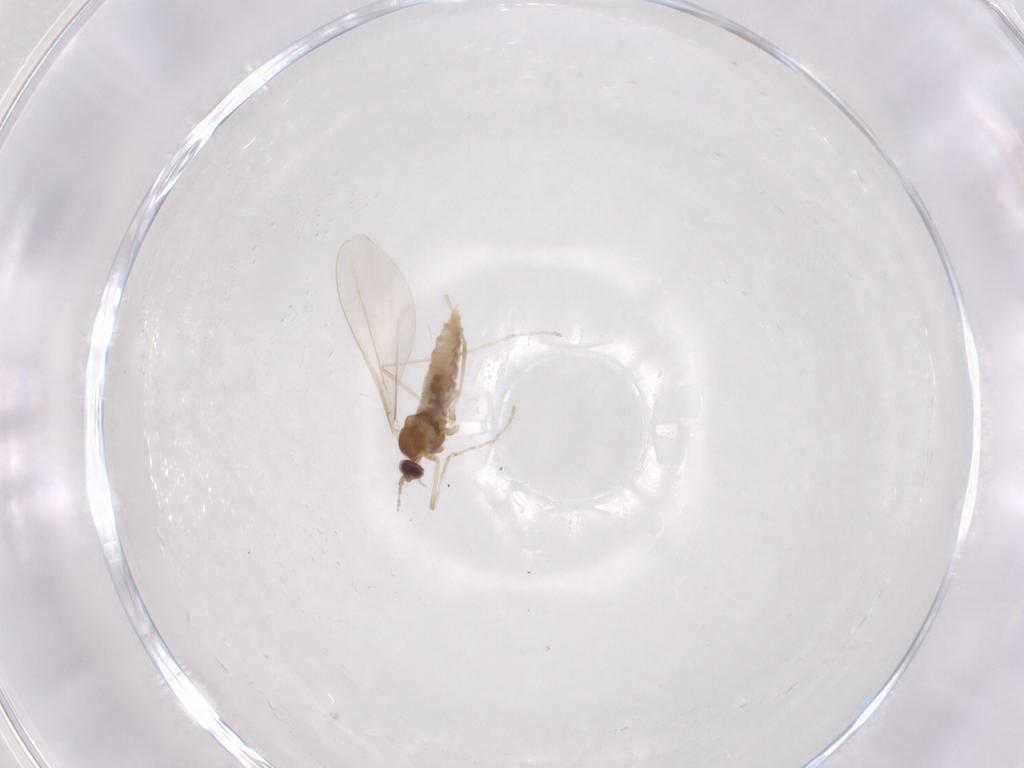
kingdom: Animalia
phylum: Arthropoda
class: Insecta
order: Diptera
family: Cecidomyiidae
